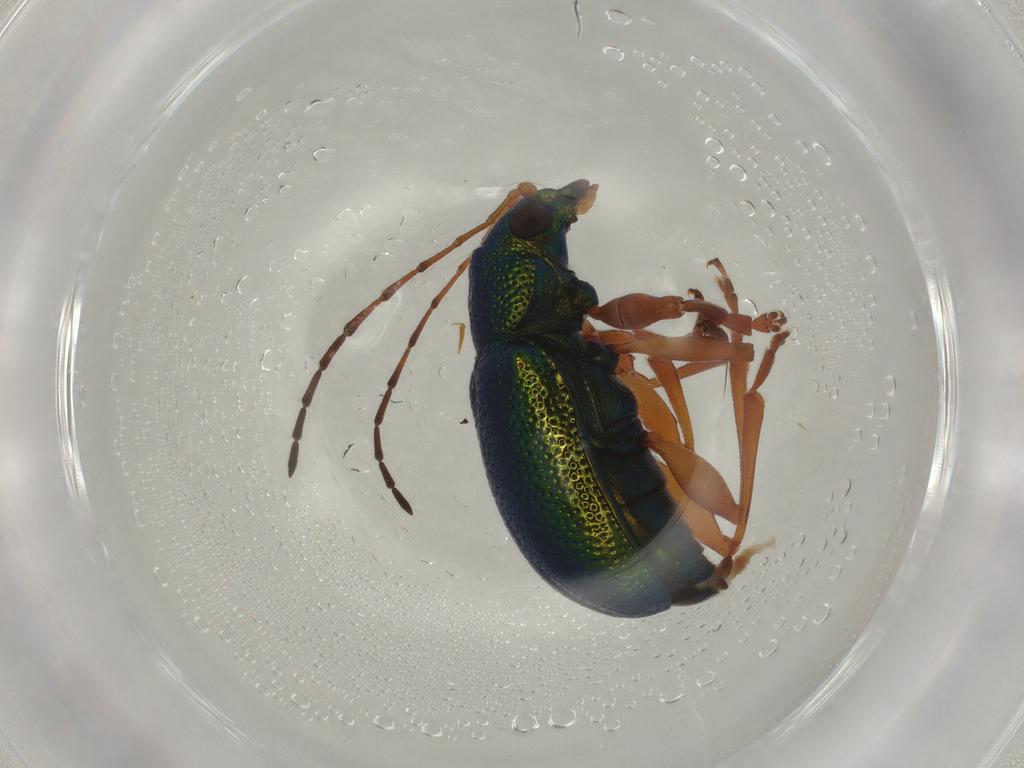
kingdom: Animalia
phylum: Arthropoda
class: Insecta
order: Coleoptera
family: Chrysomelidae
